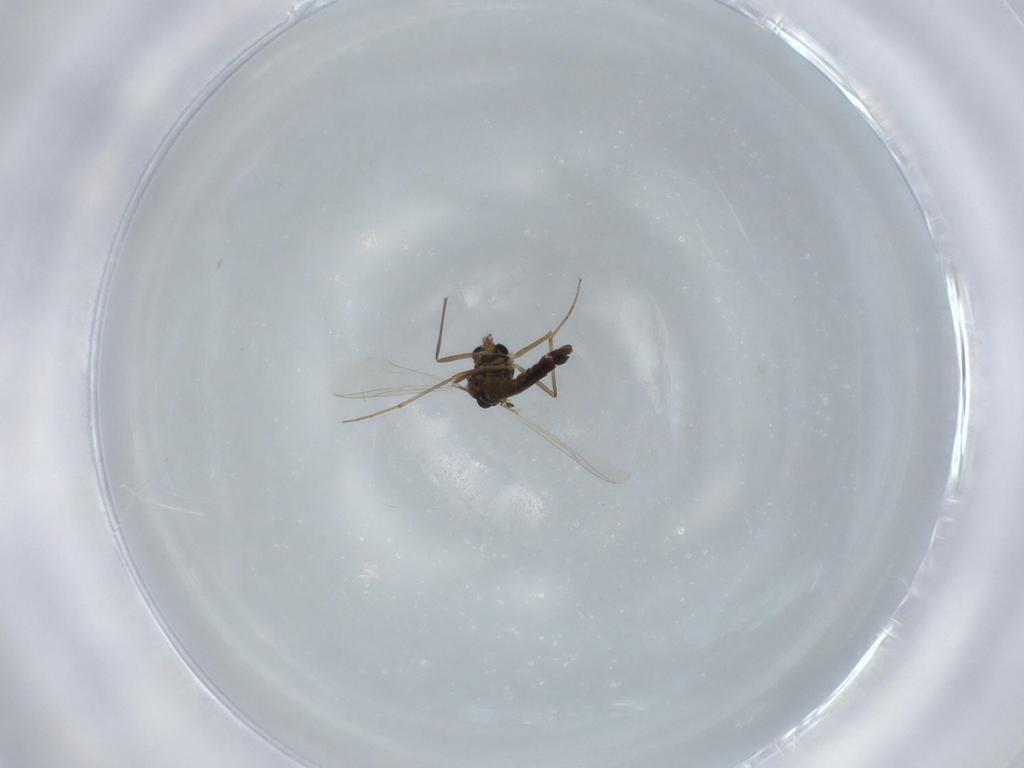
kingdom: Animalia
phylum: Arthropoda
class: Insecta
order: Diptera
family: Chironomidae
